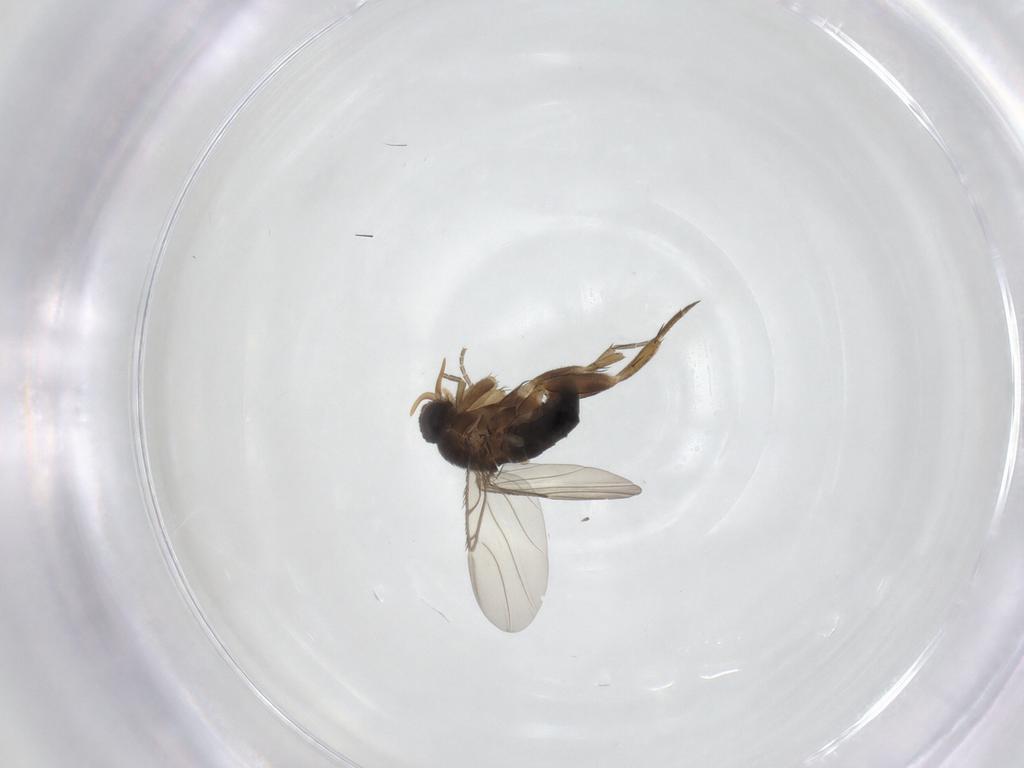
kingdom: Animalia
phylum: Arthropoda
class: Insecta
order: Diptera
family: Phoridae
